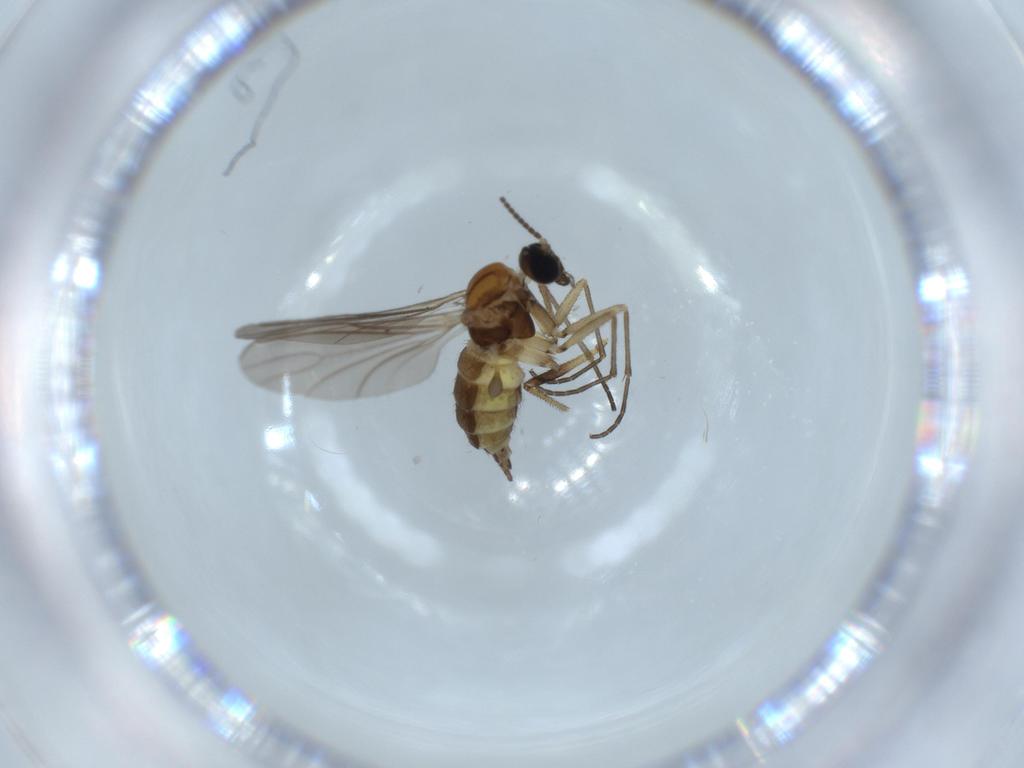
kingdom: Animalia
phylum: Arthropoda
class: Insecta
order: Diptera
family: Sciaridae
